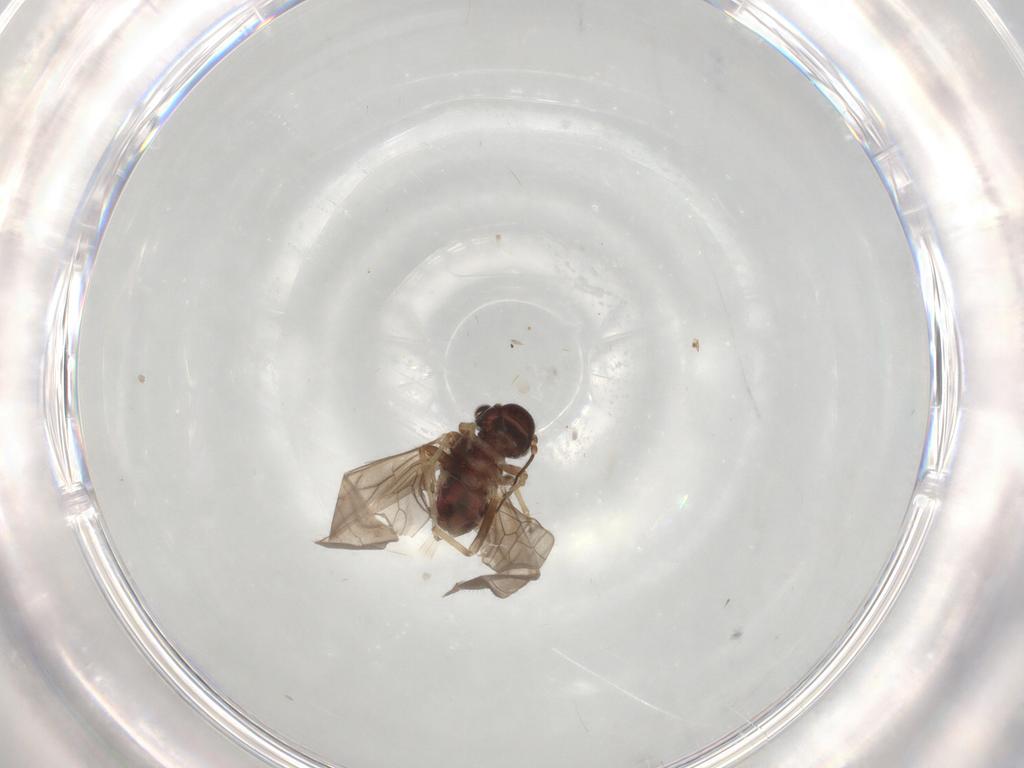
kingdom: Animalia
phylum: Arthropoda
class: Insecta
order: Psocodea
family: Caeciliusidae
